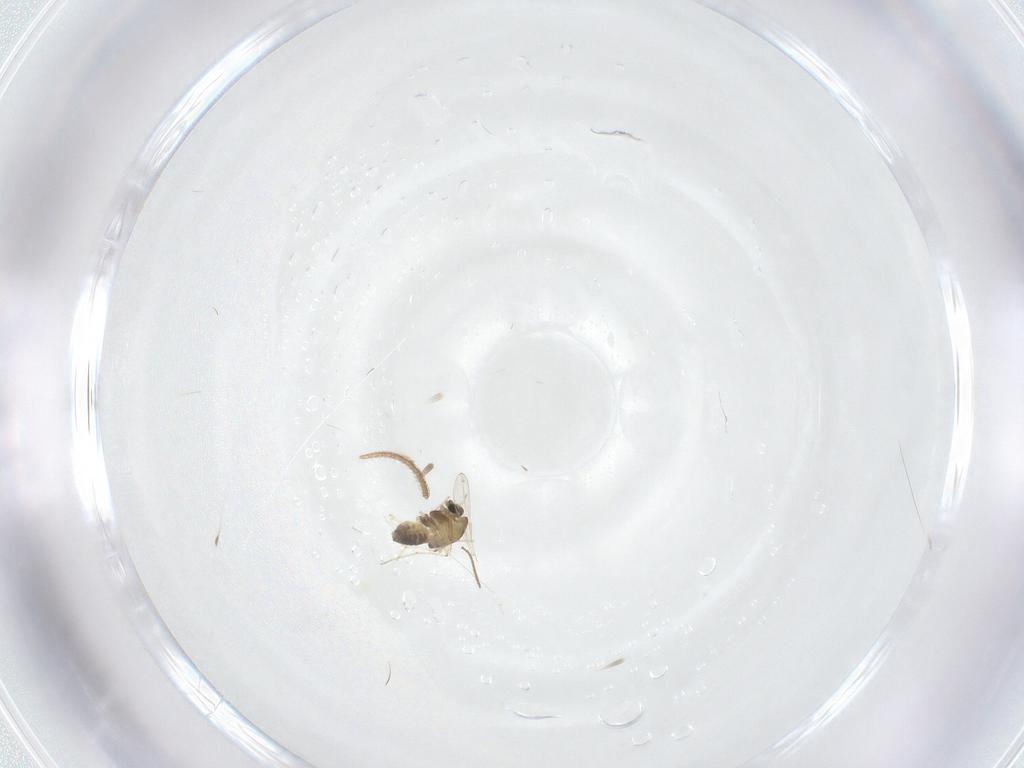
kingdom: Animalia
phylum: Arthropoda
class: Insecta
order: Diptera
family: Chironomidae
